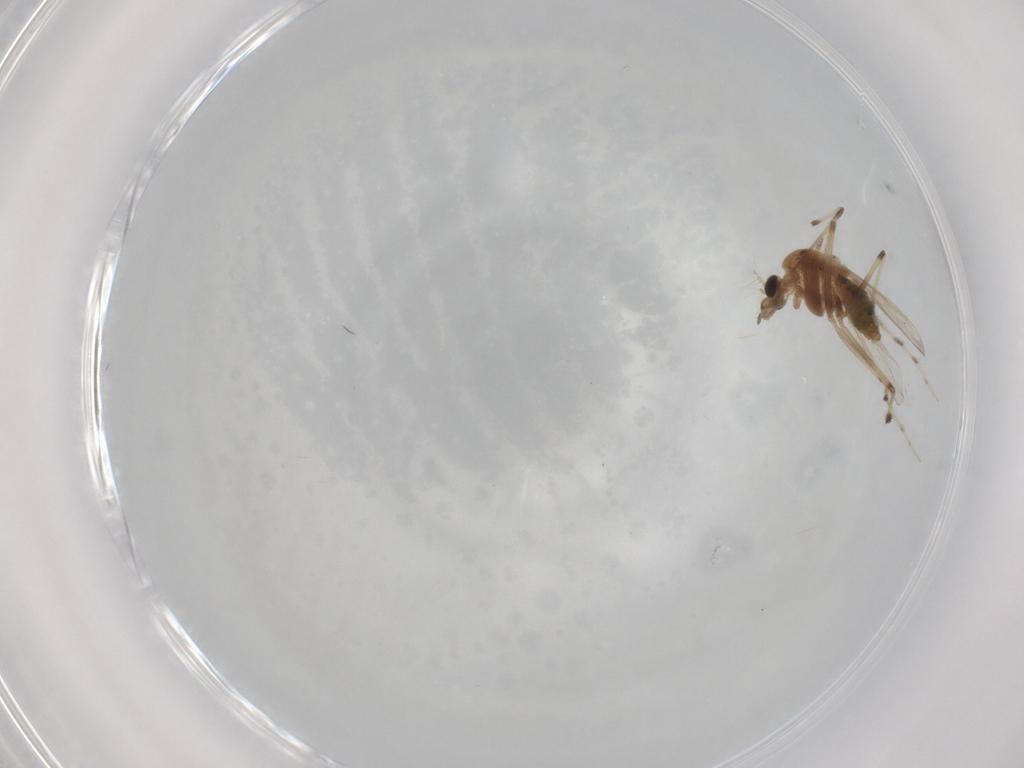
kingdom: Animalia
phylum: Arthropoda
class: Insecta
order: Diptera
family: Chironomidae
